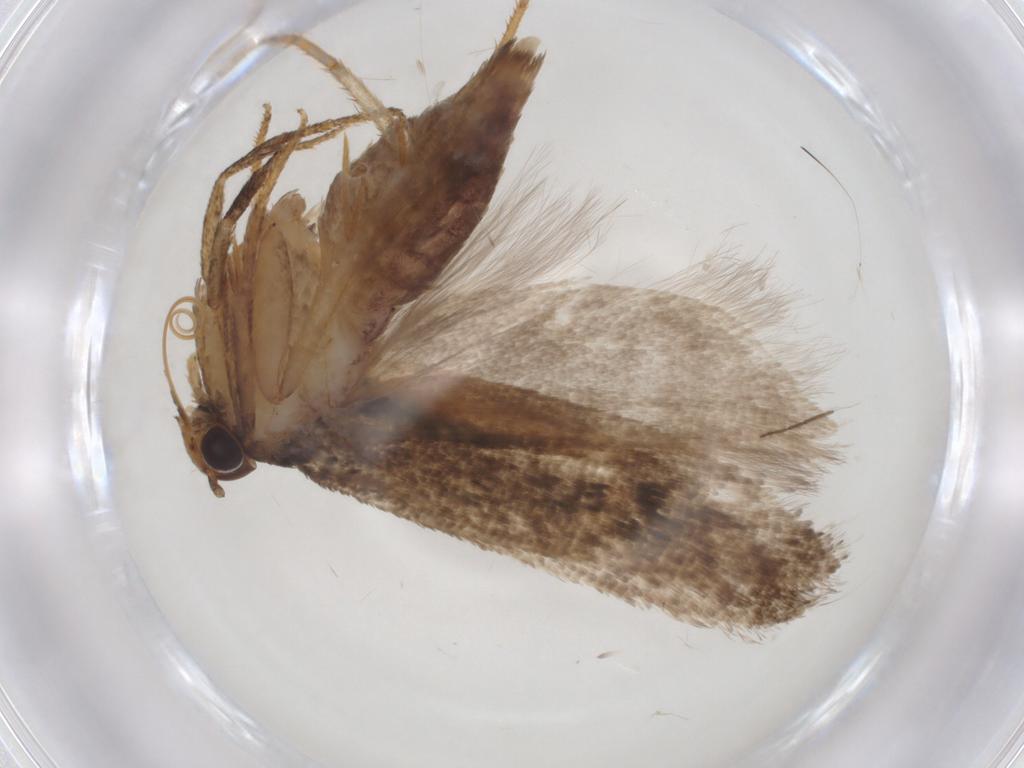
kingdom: Animalia
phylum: Arthropoda
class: Insecta
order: Lepidoptera
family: Gelechiidae
